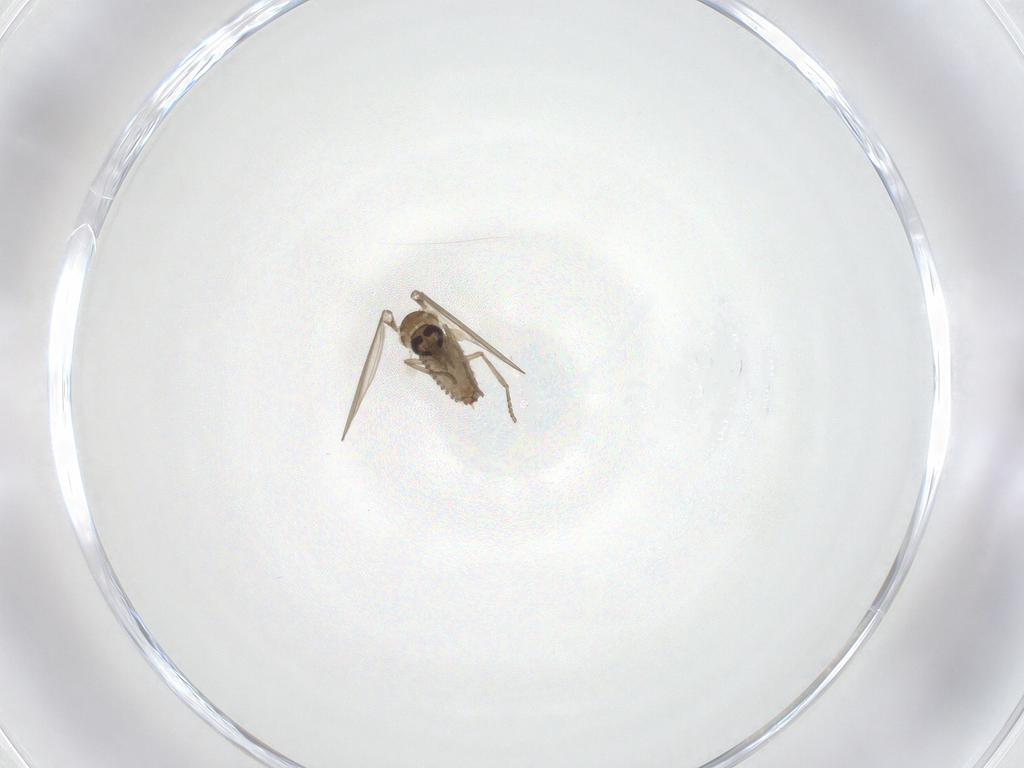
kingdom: Animalia
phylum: Arthropoda
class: Insecta
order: Diptera
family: Psychodidae
